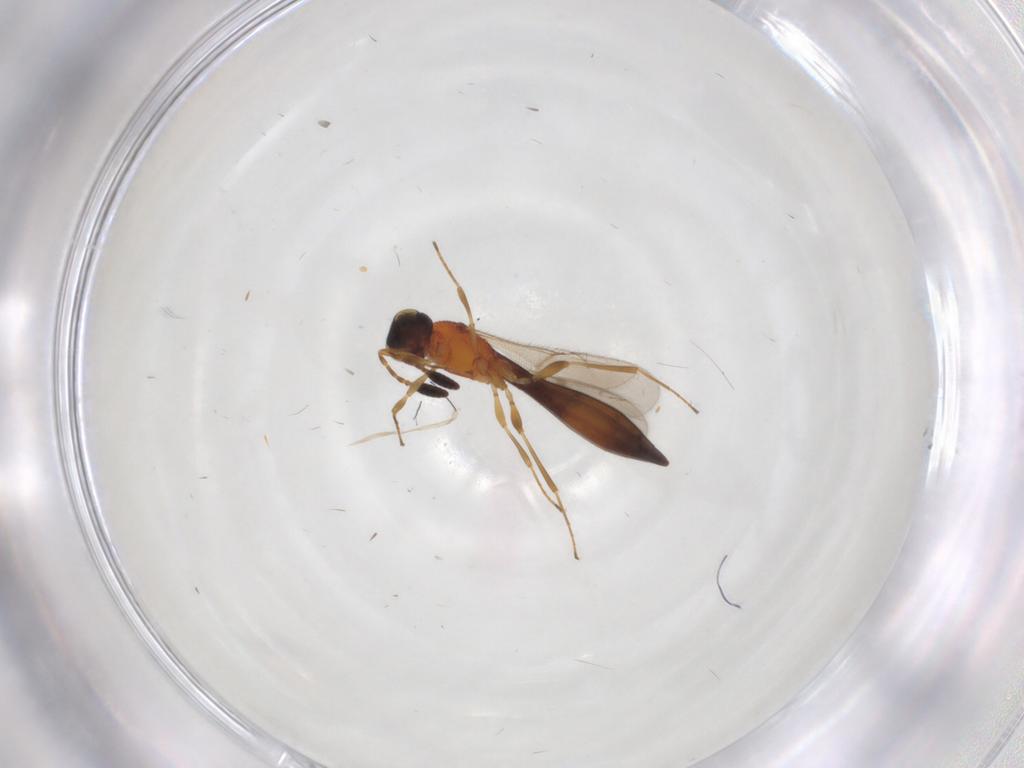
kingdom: Animalia
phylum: Arthropoda
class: Insecta
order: Hymenoptera
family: Scelionidae
